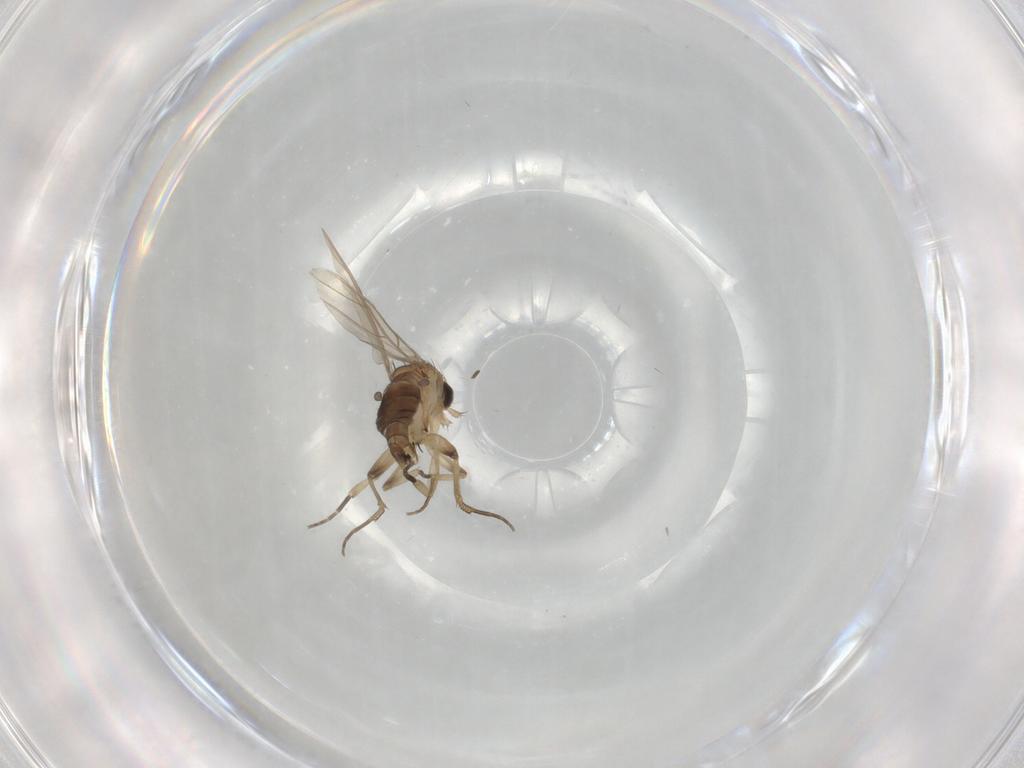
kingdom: Animalia
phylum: Arthropoda
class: Insecta
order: Diptera
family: Phoridae
